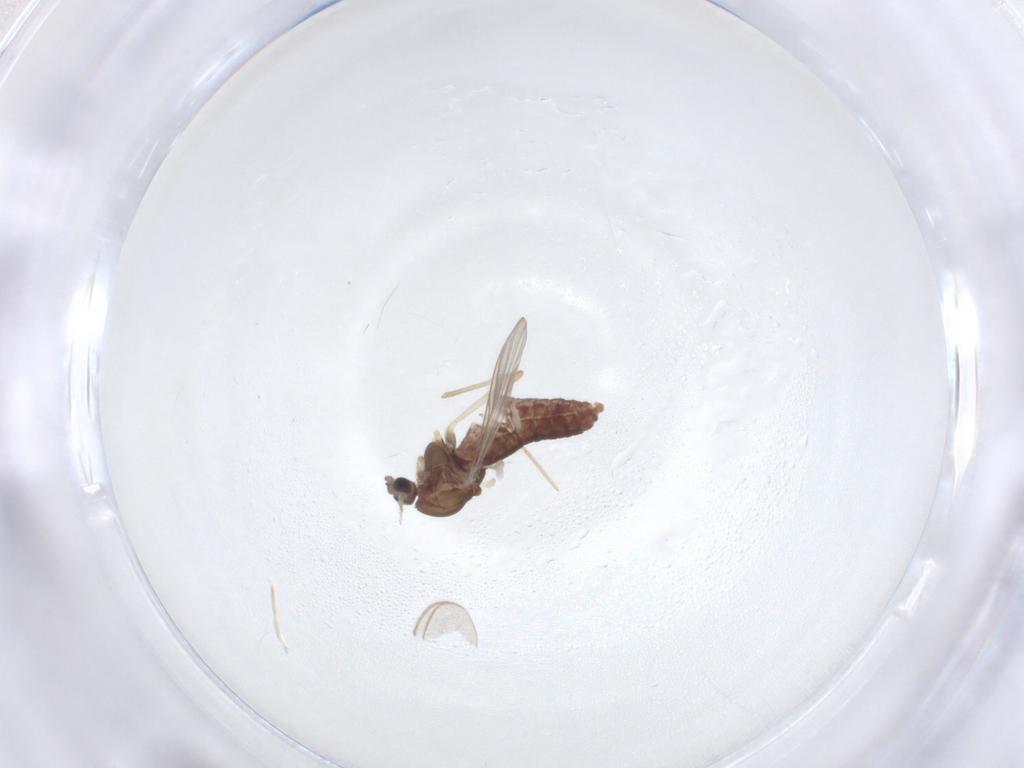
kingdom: Animalia
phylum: Arthropoda
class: Insecta
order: Diptera
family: Chironomidae
